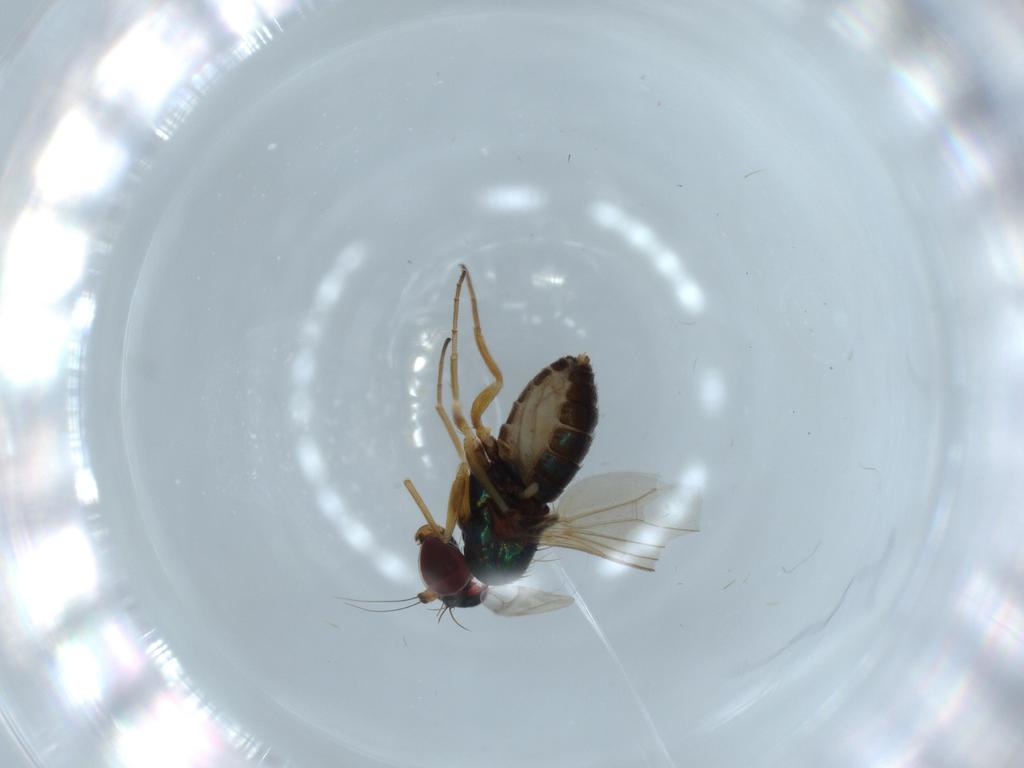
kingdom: Animalia
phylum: Arthropoda
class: Insecta
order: Diptera
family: Dolichopodidae
